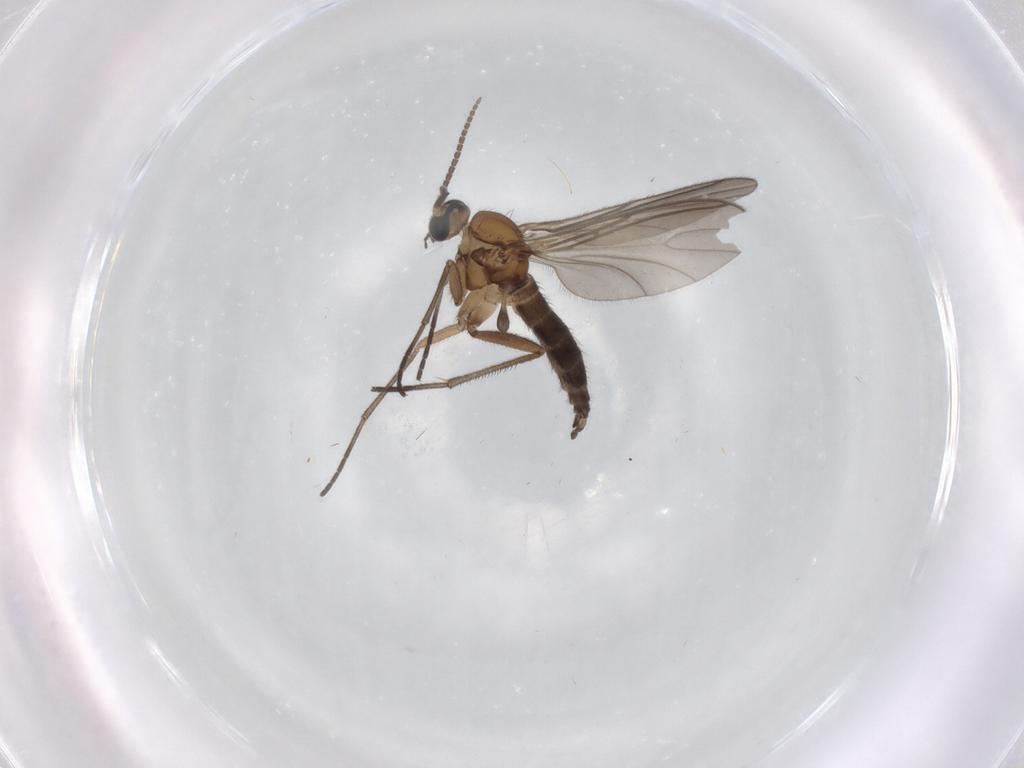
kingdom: Animalia
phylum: Arthropoda
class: Insecta
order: Diptera
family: Sciaridae
